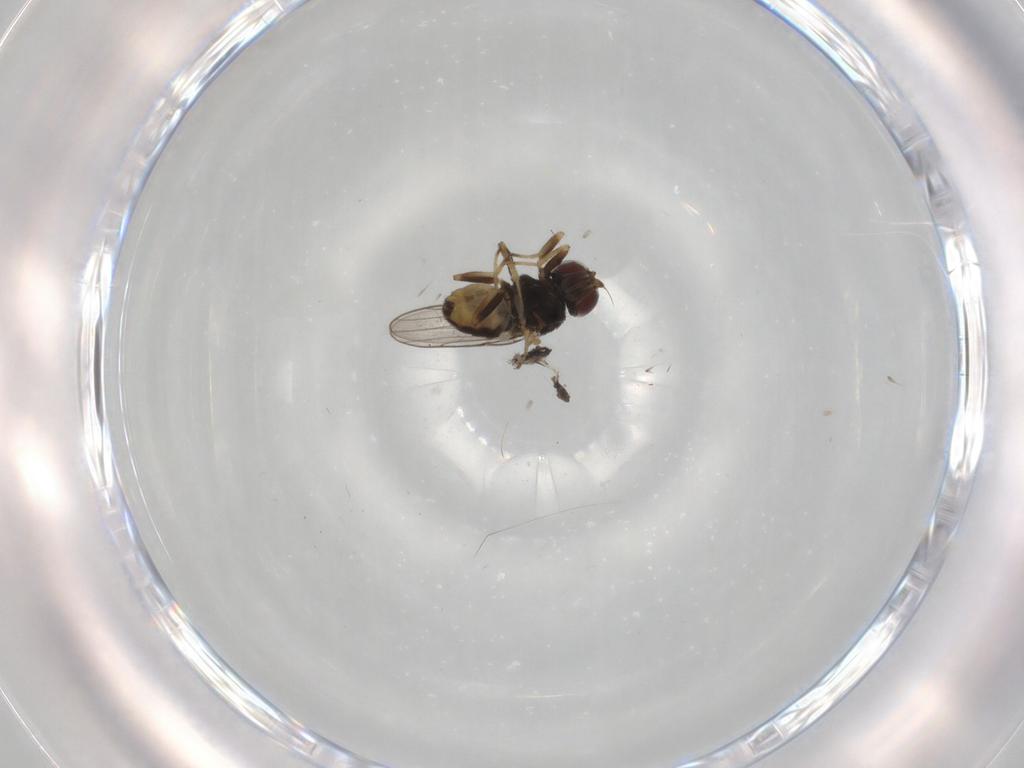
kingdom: Animalia
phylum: Arthropoda
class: Insecta
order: Diptera
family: Chloropidae
